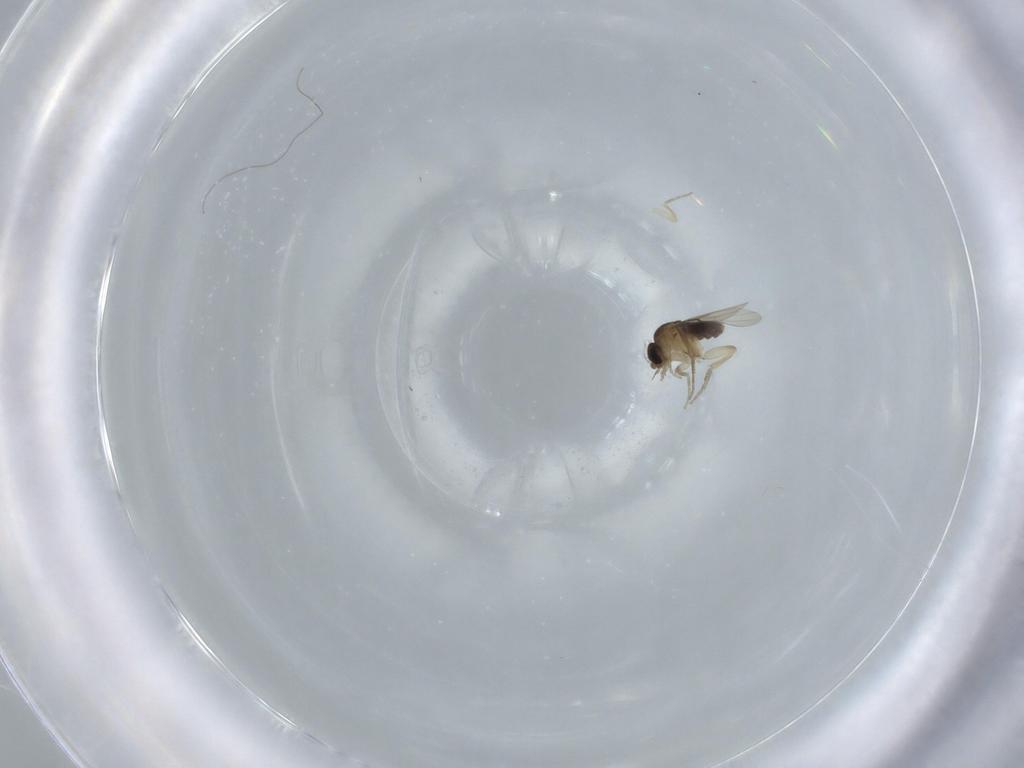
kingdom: Animalia
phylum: Arthropoda
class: Insecta
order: Diptera
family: Phoridae
